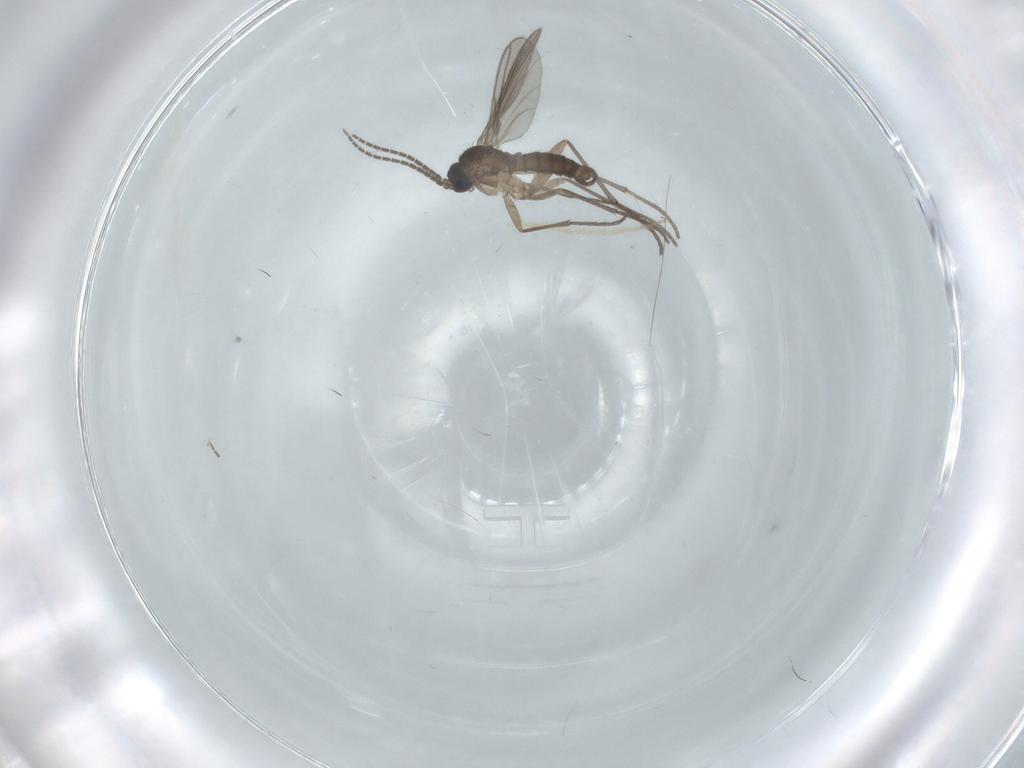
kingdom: Animalia
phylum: Arthropoda
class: Insecta
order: Diptera
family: Sciaridae
